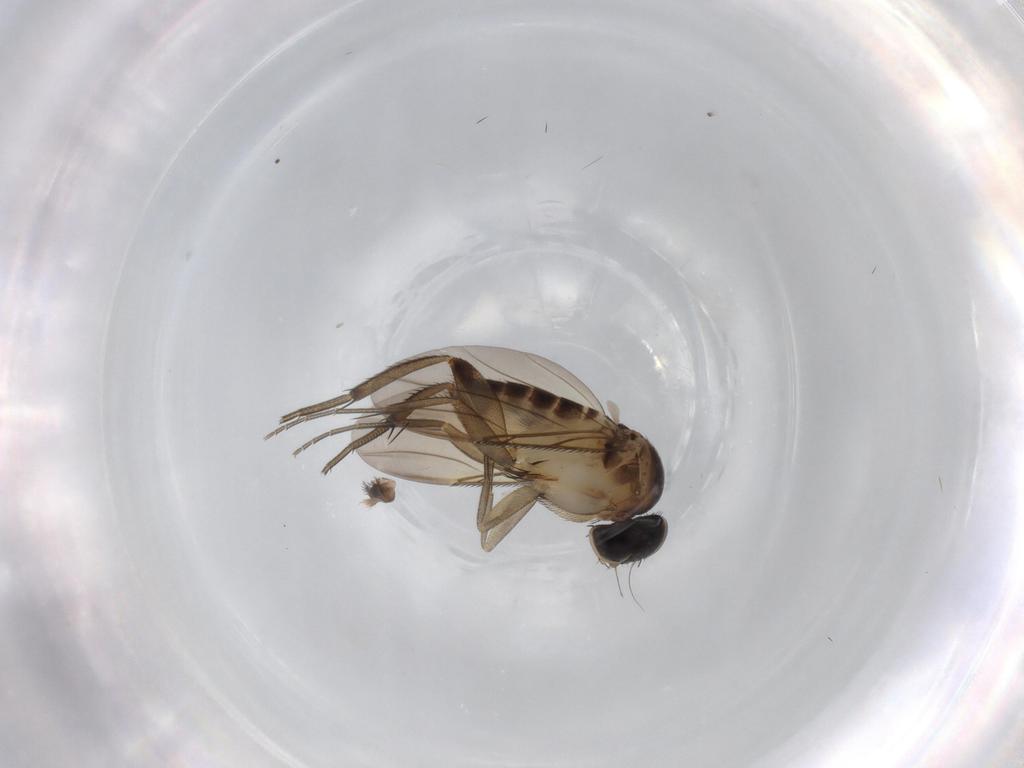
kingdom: Animalia
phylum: Arthropoda
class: Insecta
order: Diptera
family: Phoridae
